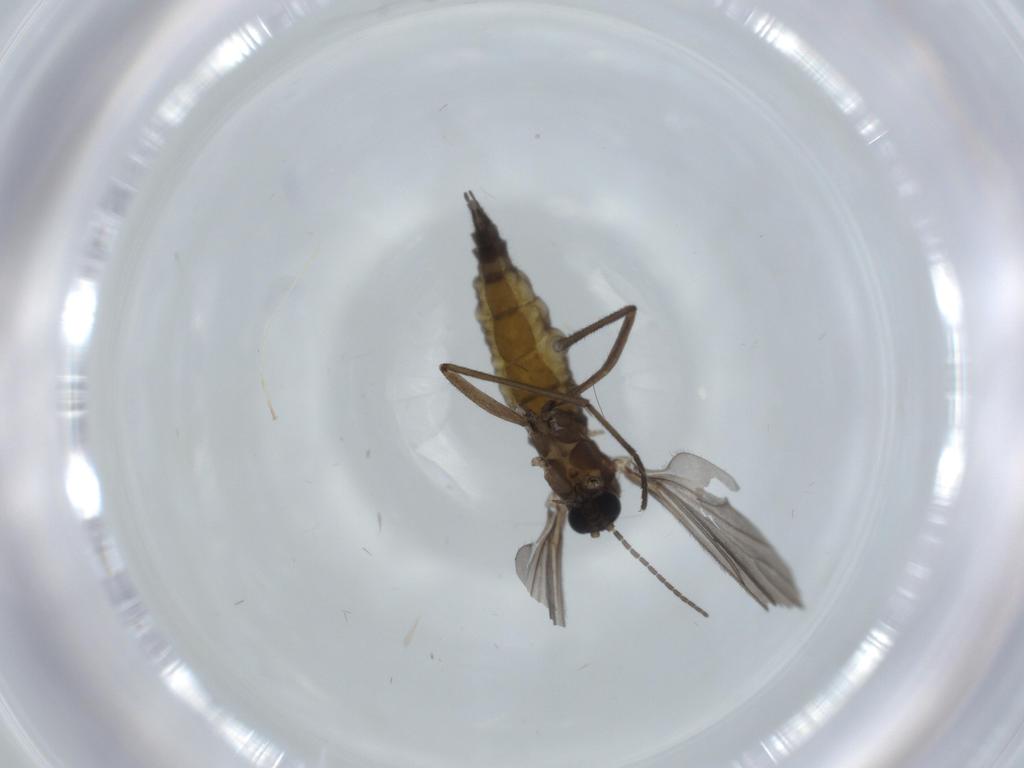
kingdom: Animalia
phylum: Arthropoda
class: Insecta
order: Diptera
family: Sciaridae
